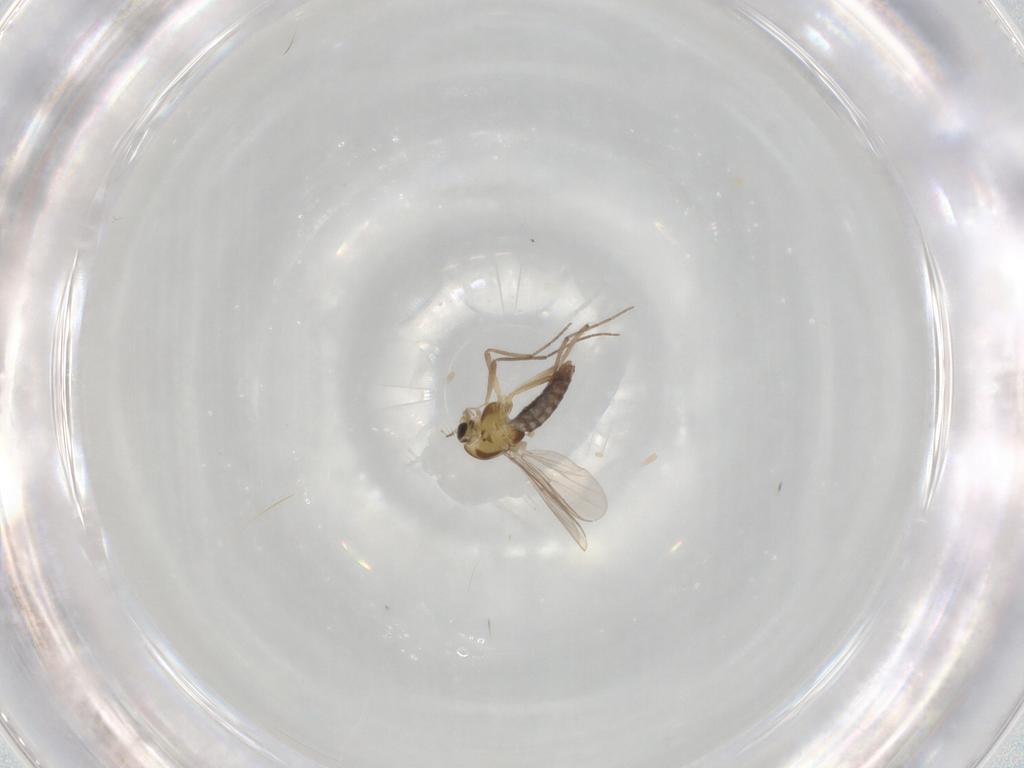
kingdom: Animalia
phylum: Arthropoda
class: Insecta
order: Diptera
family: Chironomidae
